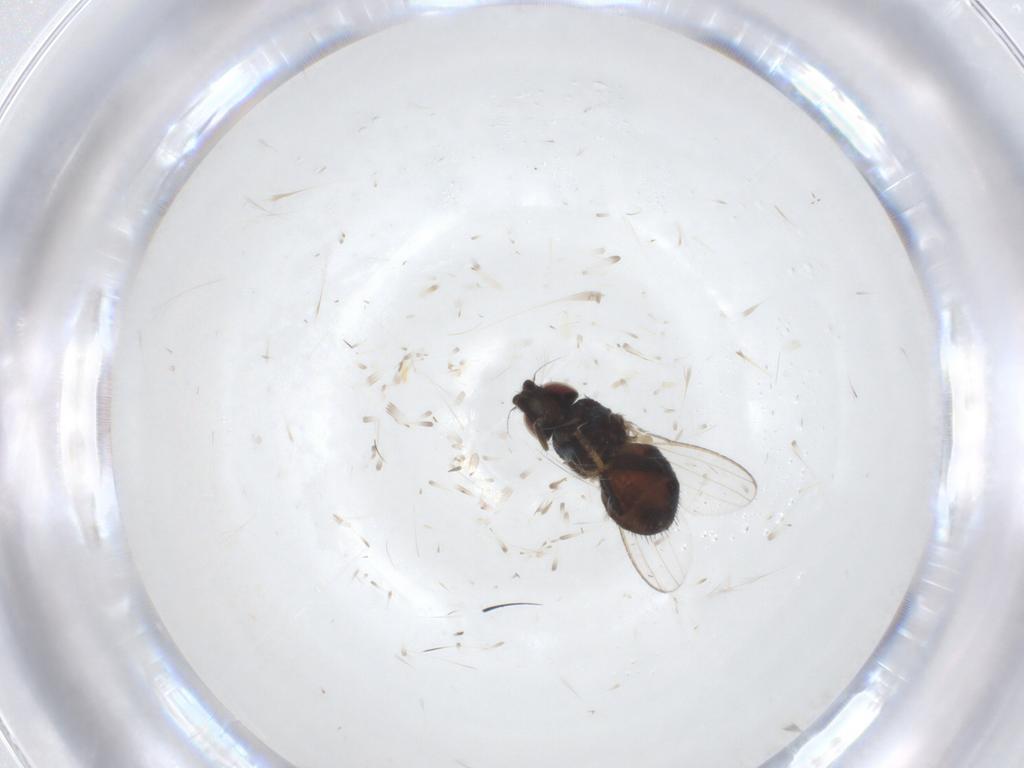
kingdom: Animalia
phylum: Arthropoda
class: Insecta
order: Diptera
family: Milichiidae
